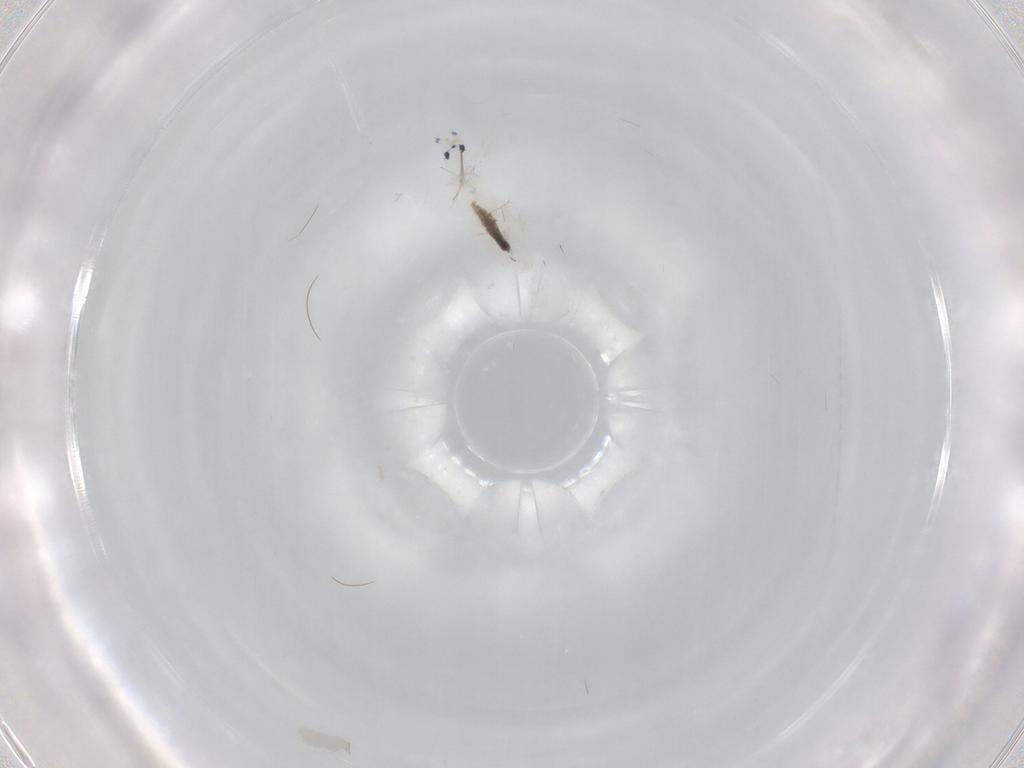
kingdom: Animalia
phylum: Arthropoda
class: Collembola
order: Entomobryomorpha
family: Entomobryidae
